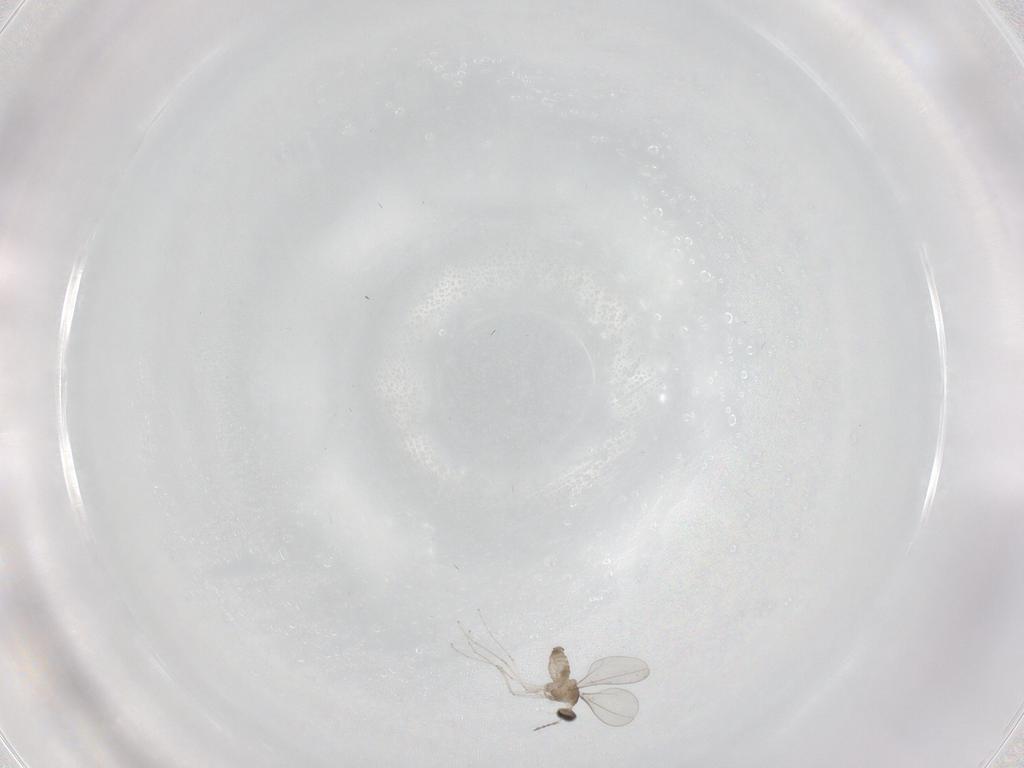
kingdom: Animalia
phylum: Arthropoda
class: Insecta
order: Diptera
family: Cecidomyiidae
